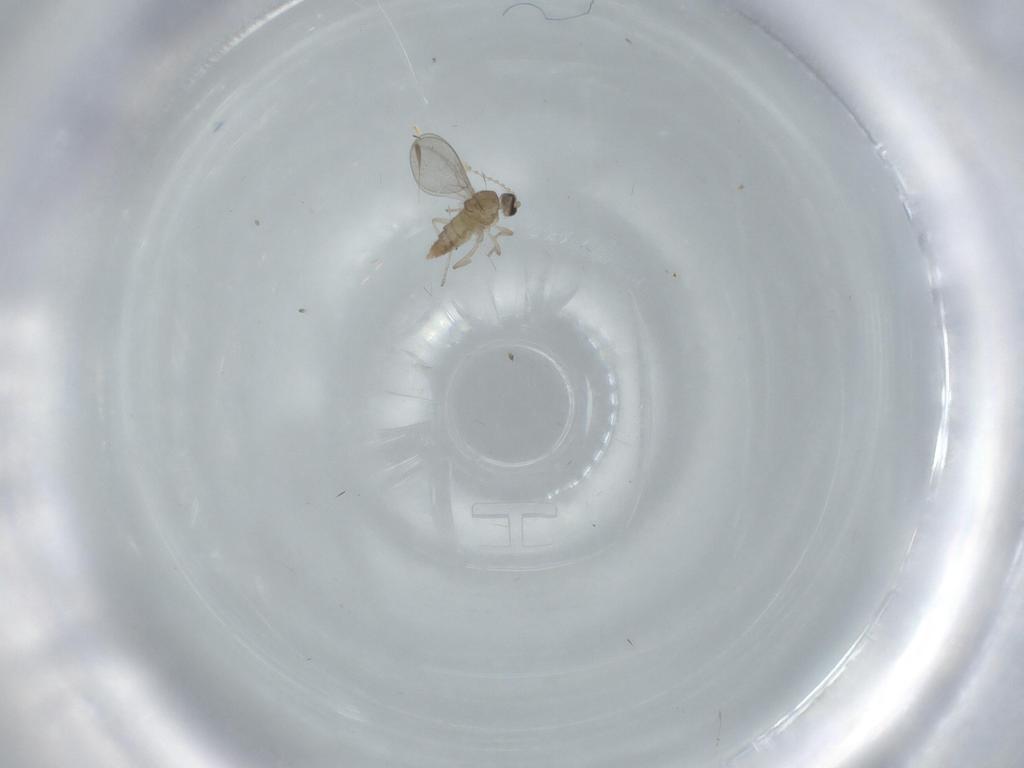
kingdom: Animalia
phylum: Arthropoda
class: Insecta
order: Diptera
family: Cecidomyiidae
